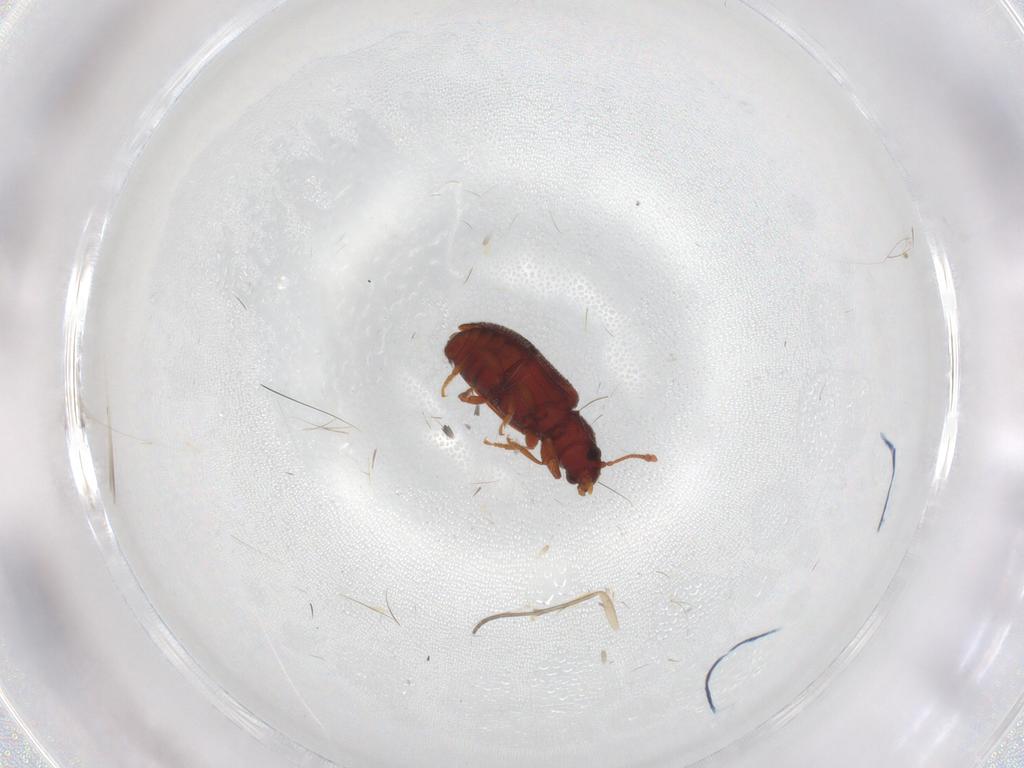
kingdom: Animalia
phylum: Arthropoda
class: Insecta
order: Coleoptera
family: Mycetophagidae
